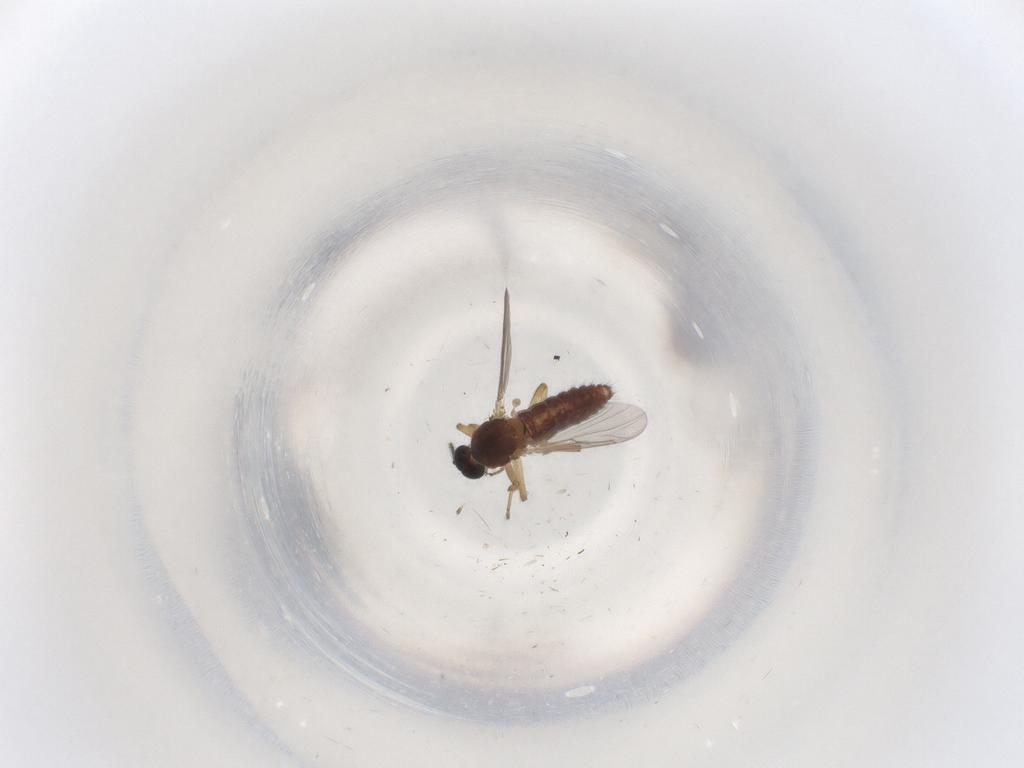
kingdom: Animalia
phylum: Arthropoda
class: Insecta
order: Diptera
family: Ceratopogonidae
